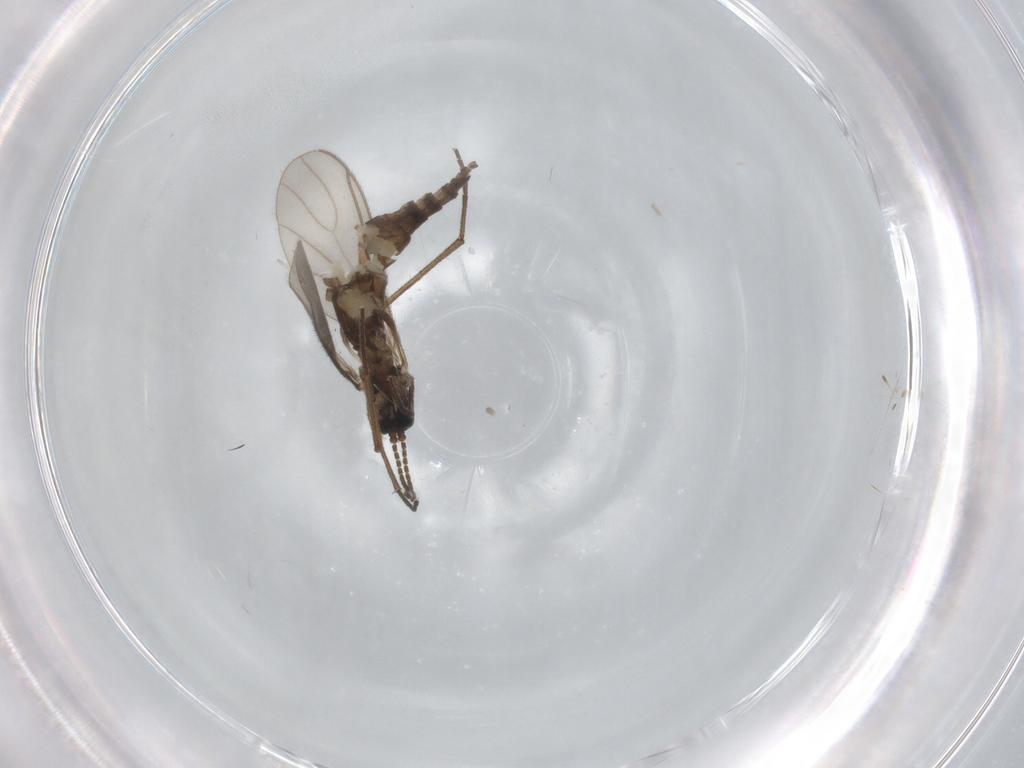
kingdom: Animalia
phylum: Arthropoda
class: Insecta
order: Diptera
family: Sciaridae
